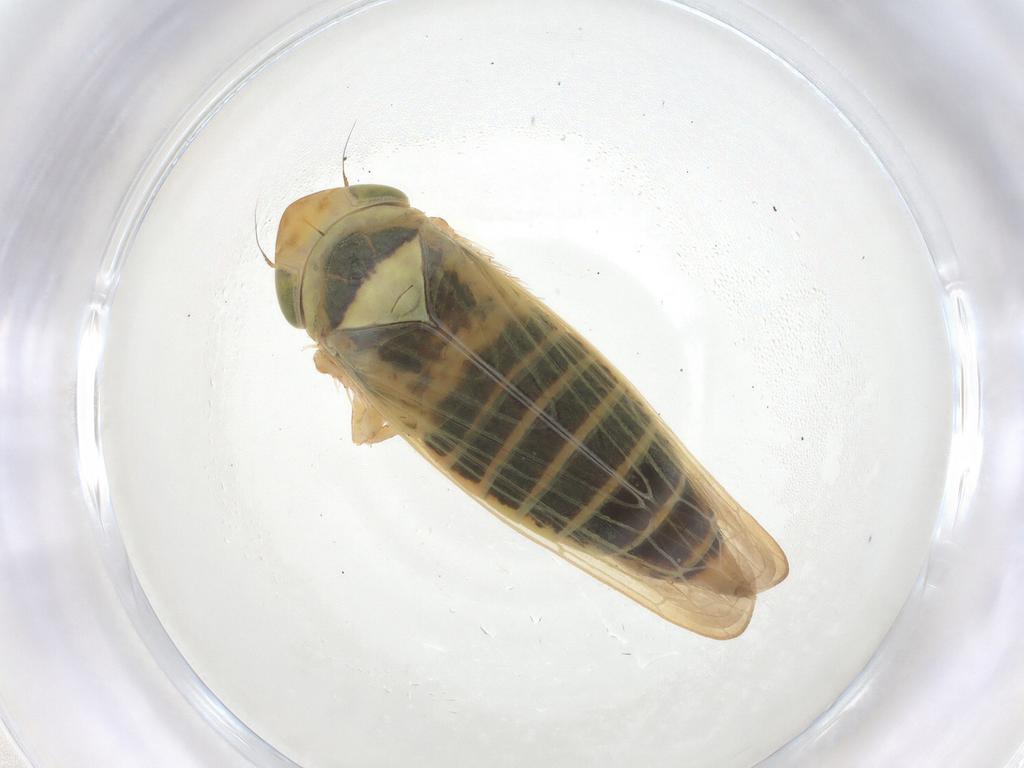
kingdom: Animalia
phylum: Arthropoda
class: Insecta
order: Hemiptera
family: Cicadellidae
